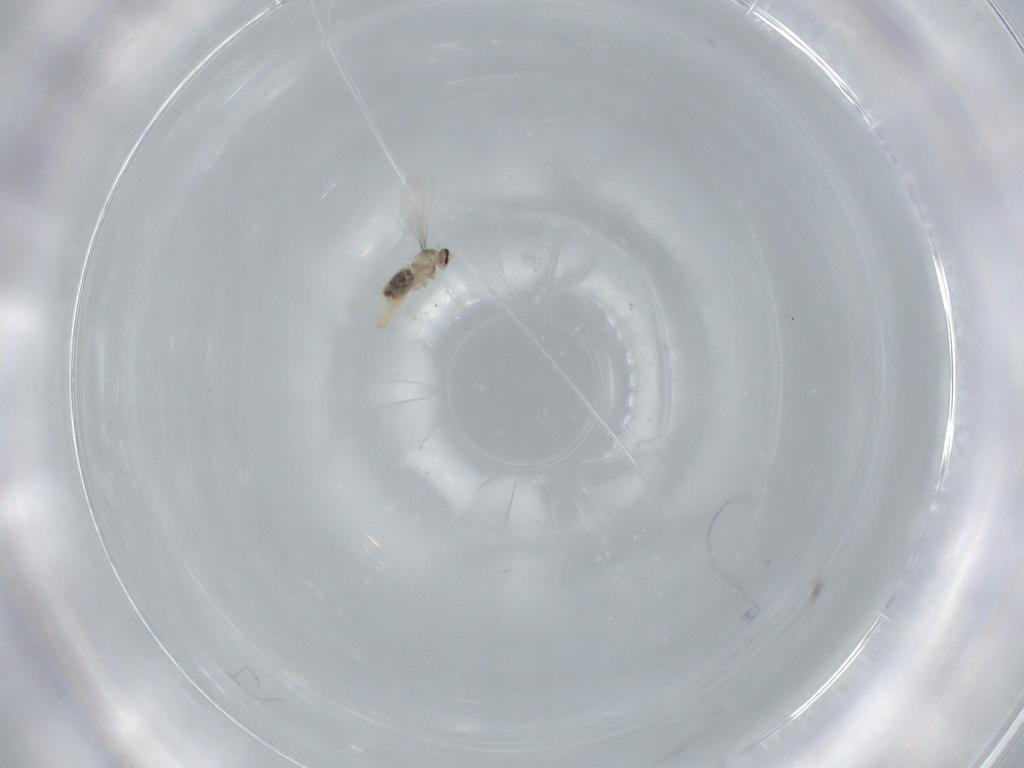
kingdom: Animalia
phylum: Arthropoda
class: Insecta
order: Diptera
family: Cecidomyiidae
